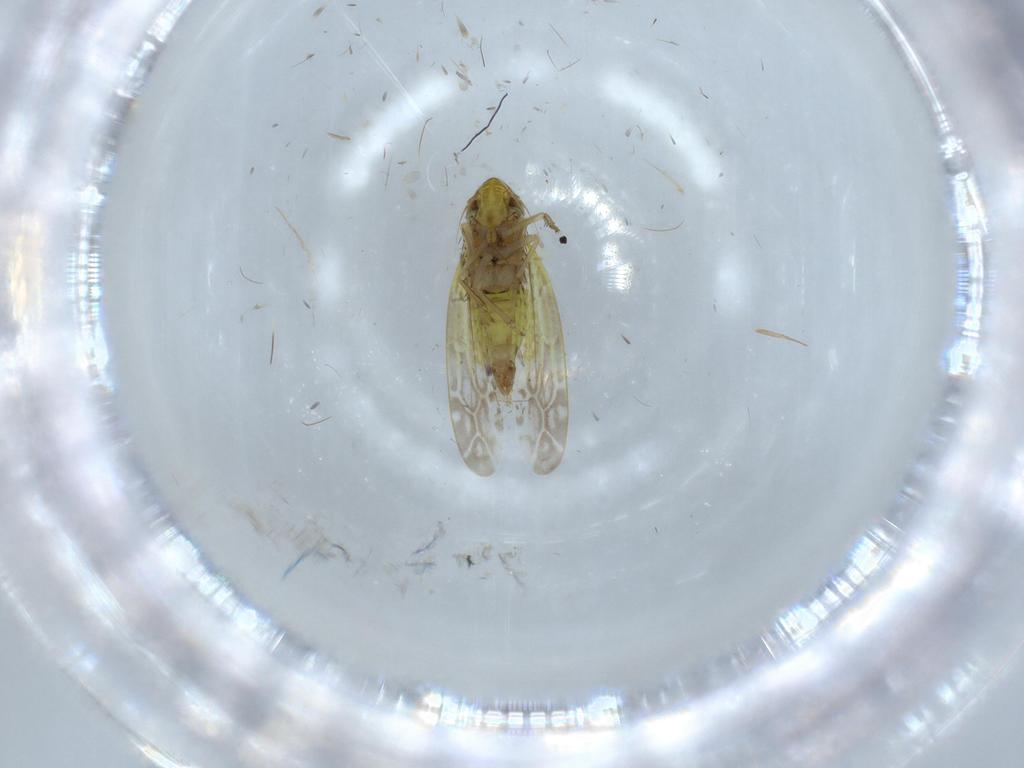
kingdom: Animalia
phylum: Arthropoda
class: Insecta
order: Hemiptera
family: Cicadellidae
